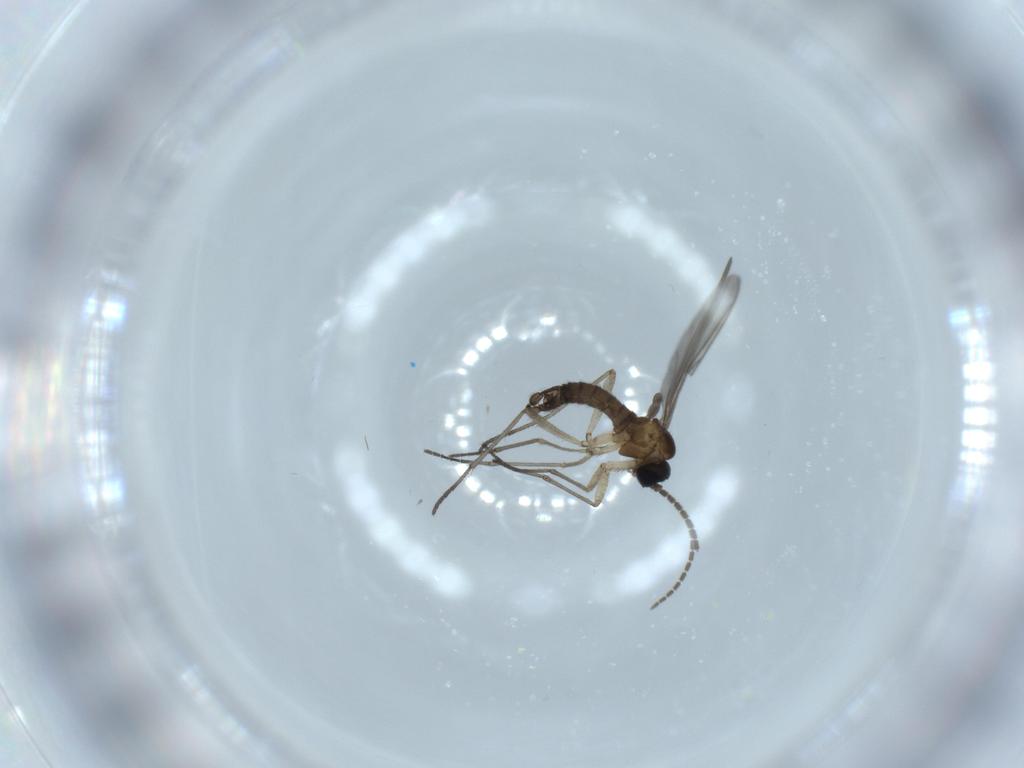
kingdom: Animalia
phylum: Arthropoda
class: Insecta
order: Diptera
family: Sciaridae
